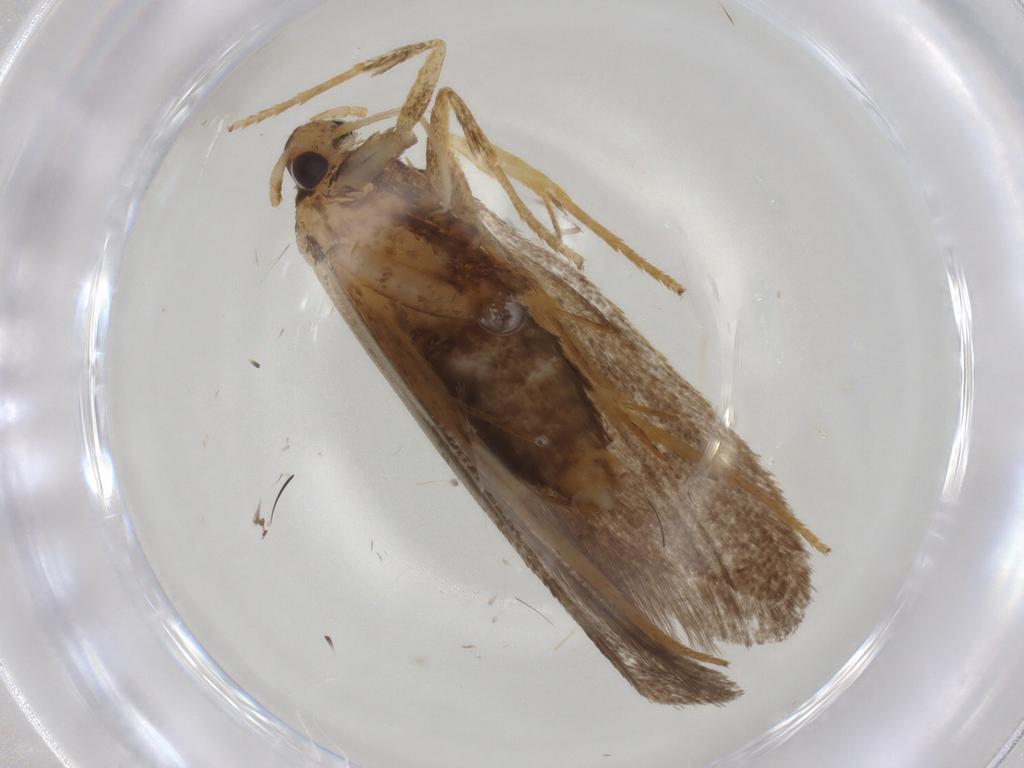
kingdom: Animalia
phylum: Arthropoda
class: Insecta
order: Lepidoptera
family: Lecithoceridae
